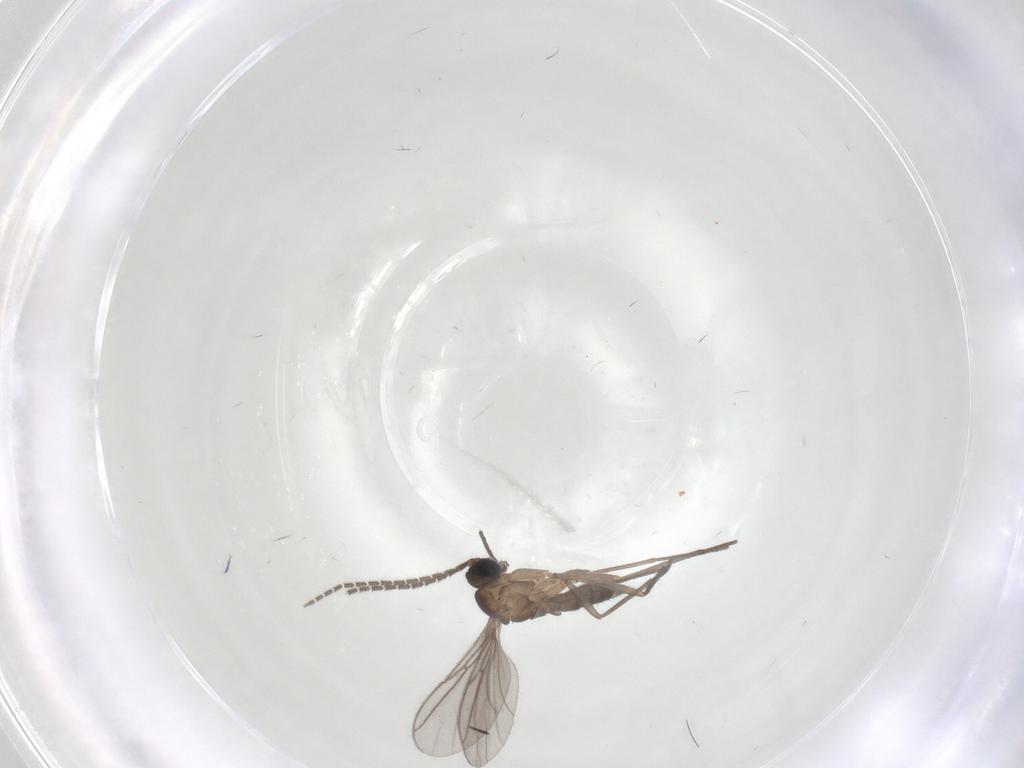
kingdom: Animalia
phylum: Arthropoda
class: Insecta
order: Diptera
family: Sciaridae
